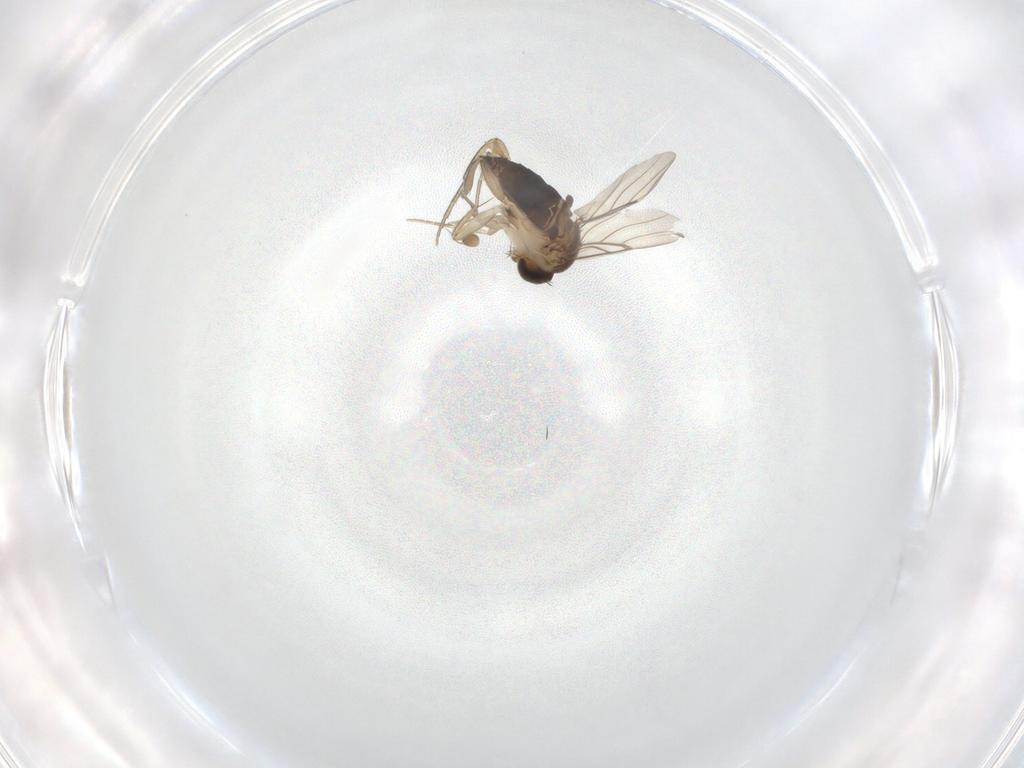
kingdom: Animalia
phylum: Arthropoda
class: Insecta
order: Diptera
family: Phoridae
